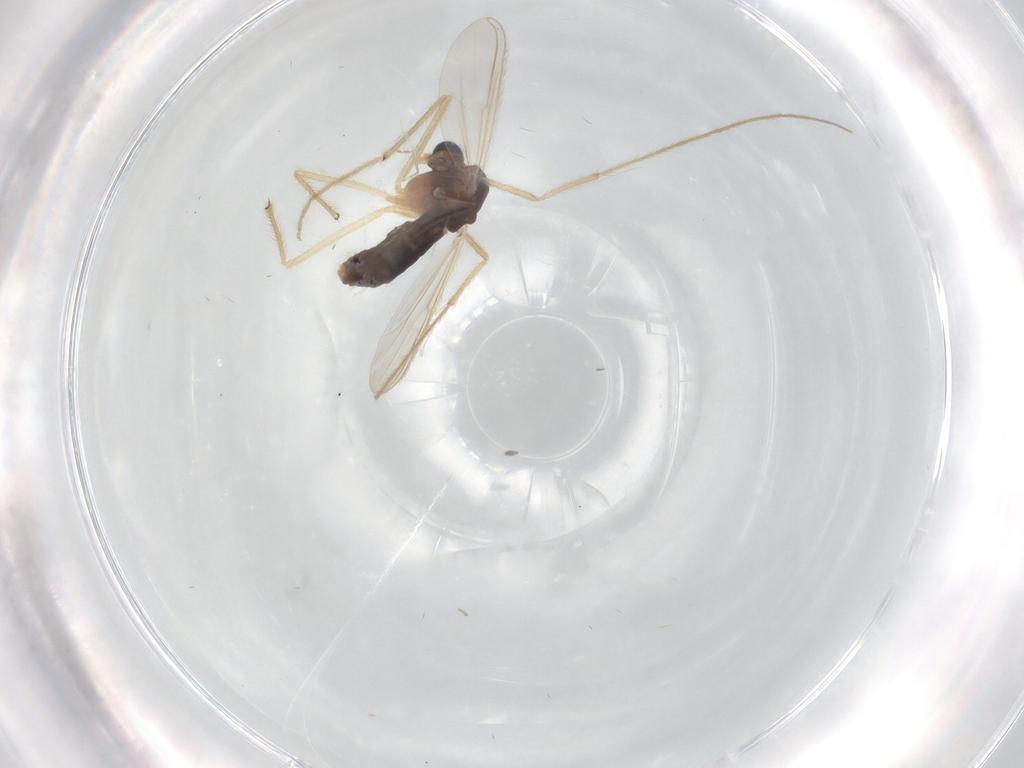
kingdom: Animalia
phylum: Arthropoda
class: Insecta
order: Diptera
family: Chironomidae
